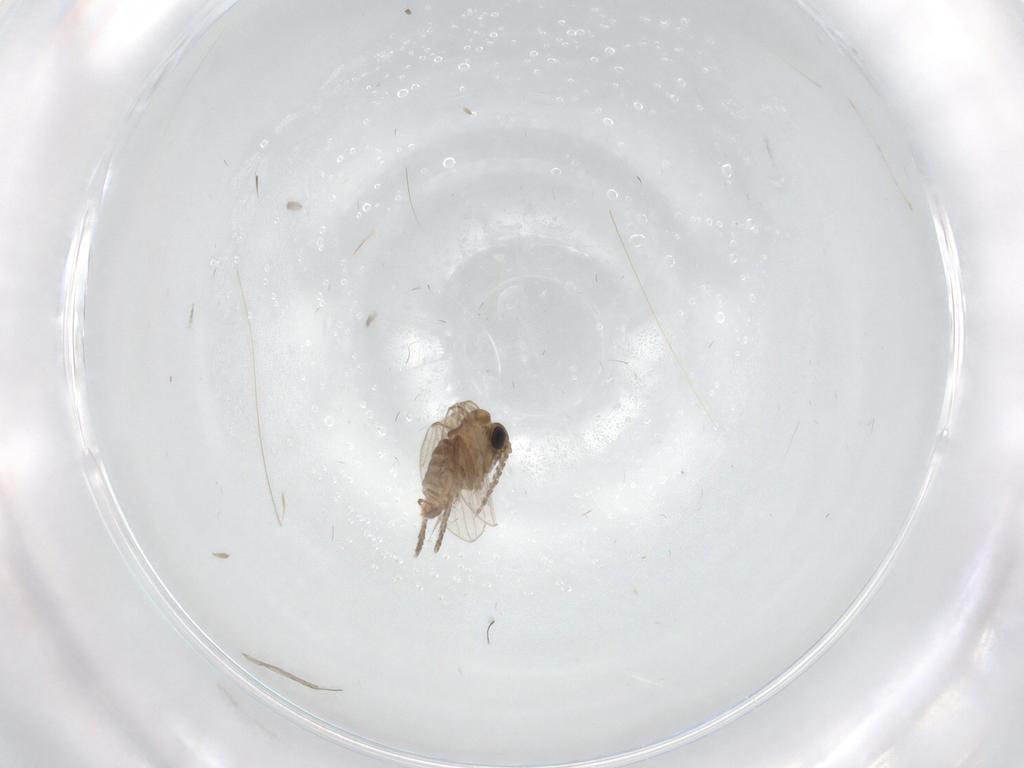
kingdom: Animalia
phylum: Arthropoda
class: Insecta
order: Diptera
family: Cecidomyiidae
